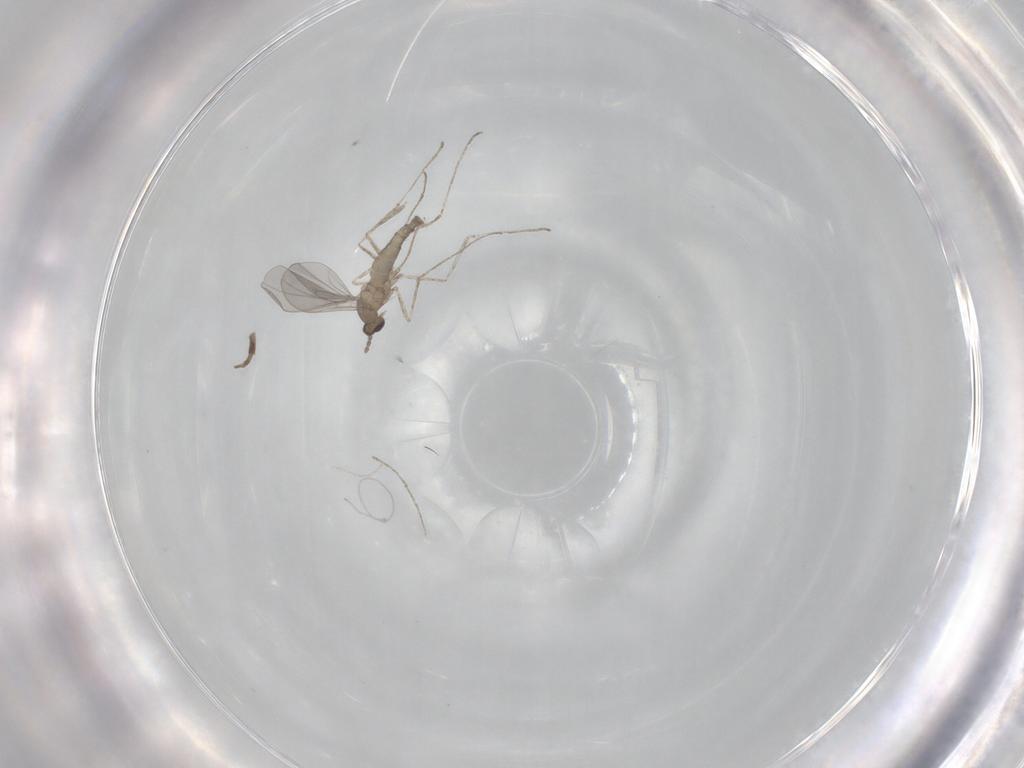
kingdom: Animalia
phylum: Arthropoda
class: Insecta
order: Diptera
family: Cecidomyiidae
